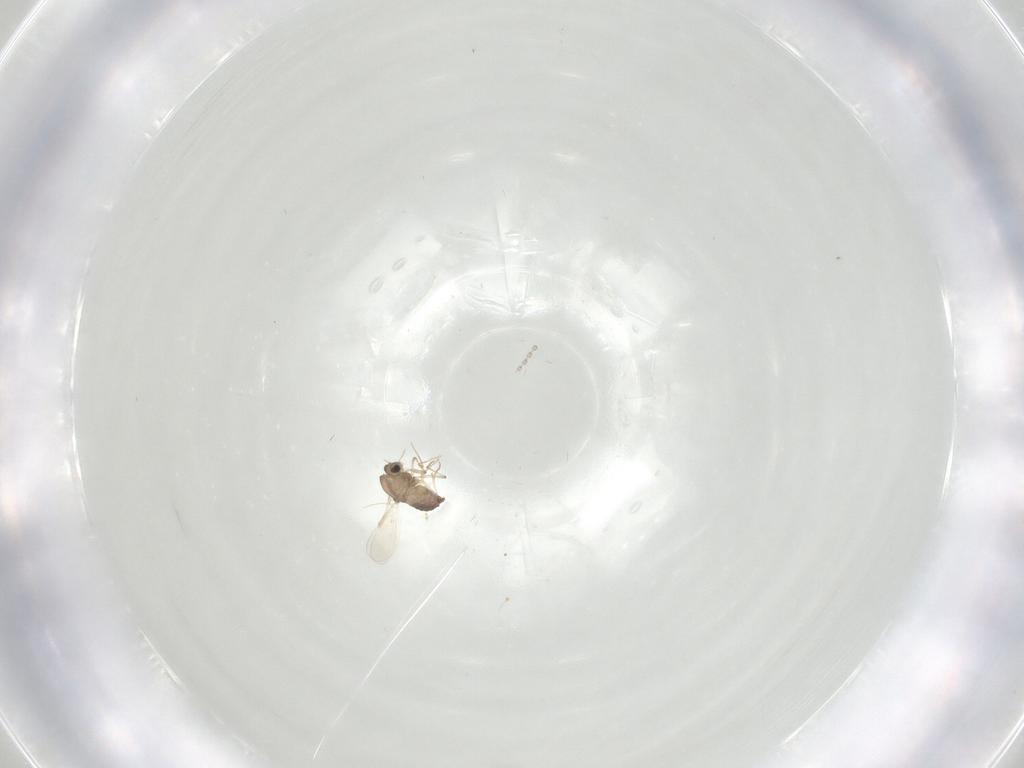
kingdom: Animalia
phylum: Arthropoda
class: Insecta
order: Diptera
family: Chironomidae
